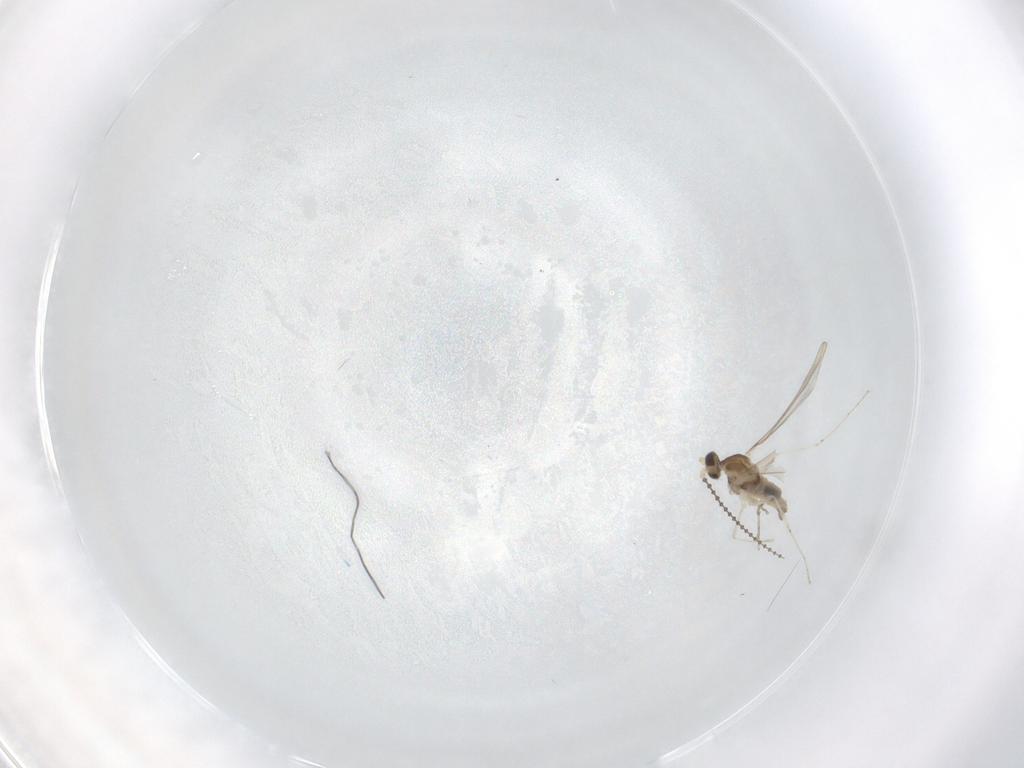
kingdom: Animalia
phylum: Arthropoda
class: Insecta
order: Diptera
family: Cecidomyiidae
